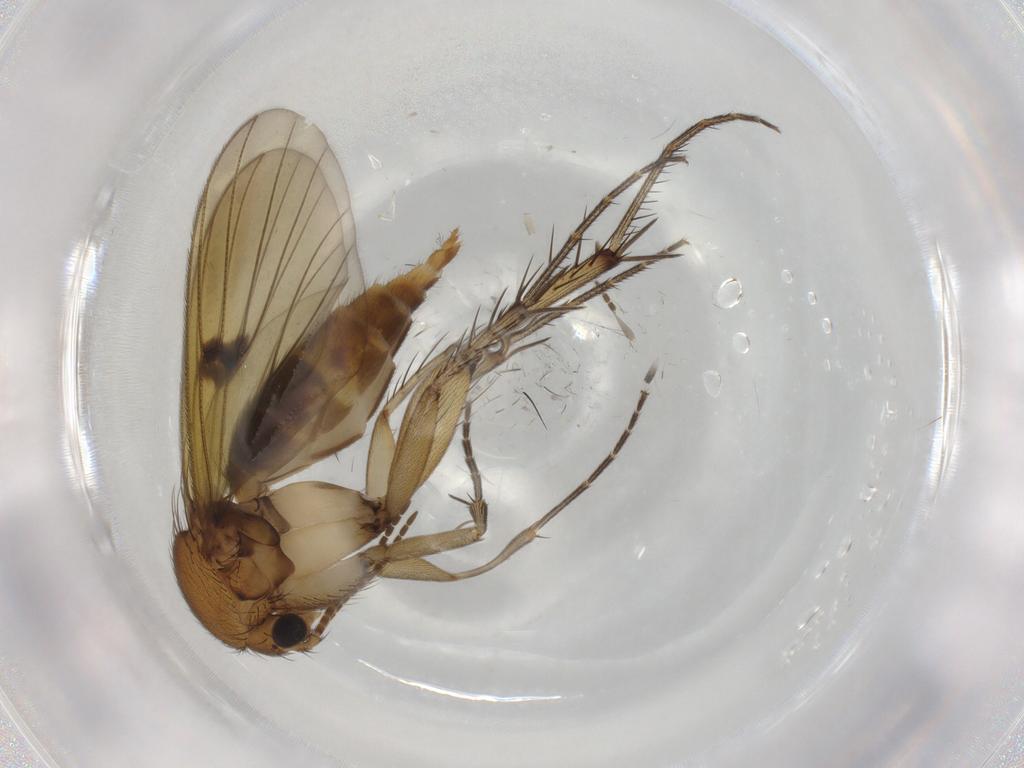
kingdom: Animalia
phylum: Arthropoda
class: Insecta
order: Diptera
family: Mycetophilidae
